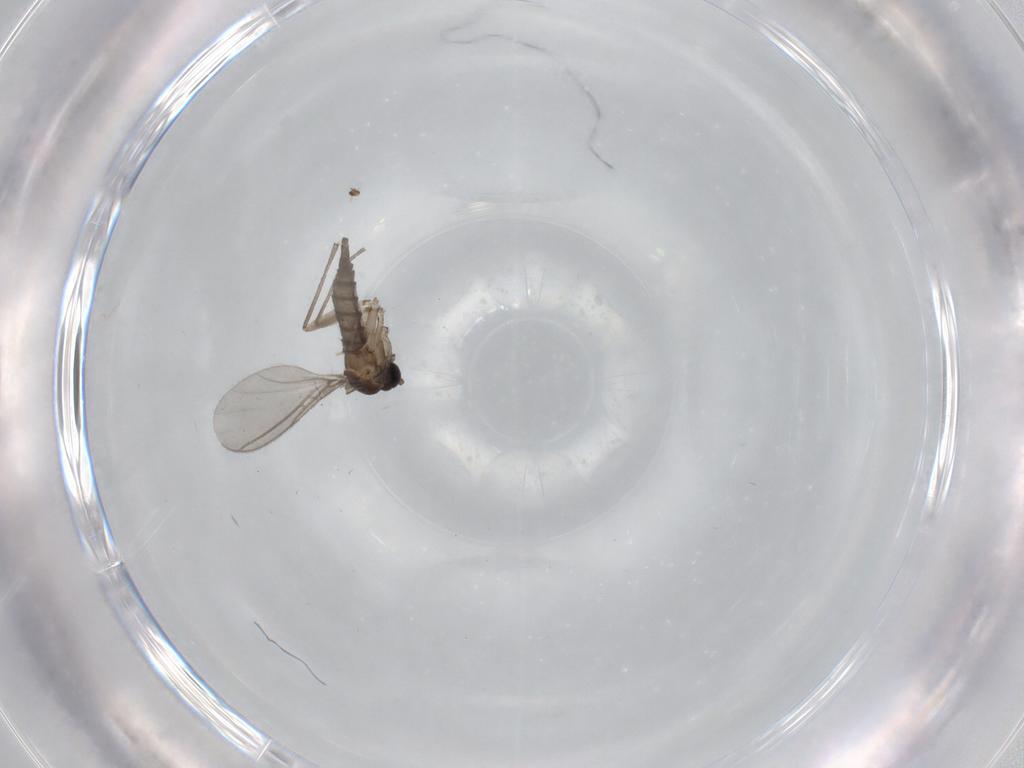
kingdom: Animalia
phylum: Arthropoda
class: Insecta
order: Diptera
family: Sciaridae
